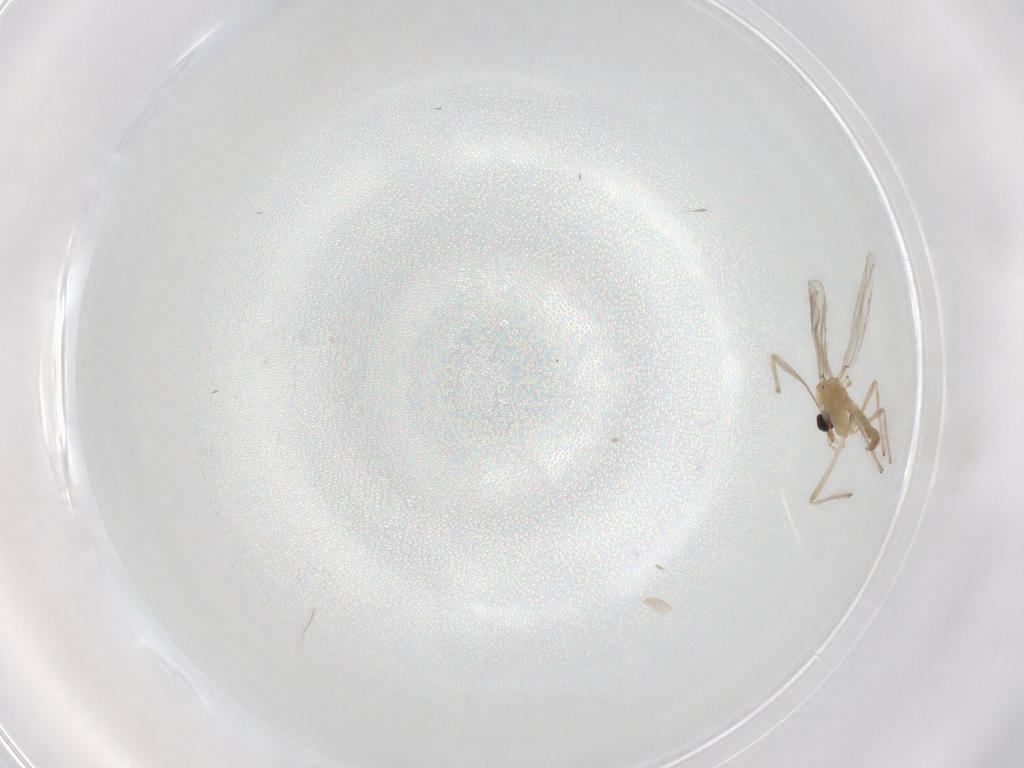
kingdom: Animalia
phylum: Arthropoda
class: Insecta
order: Diptera
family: Chironomidae
